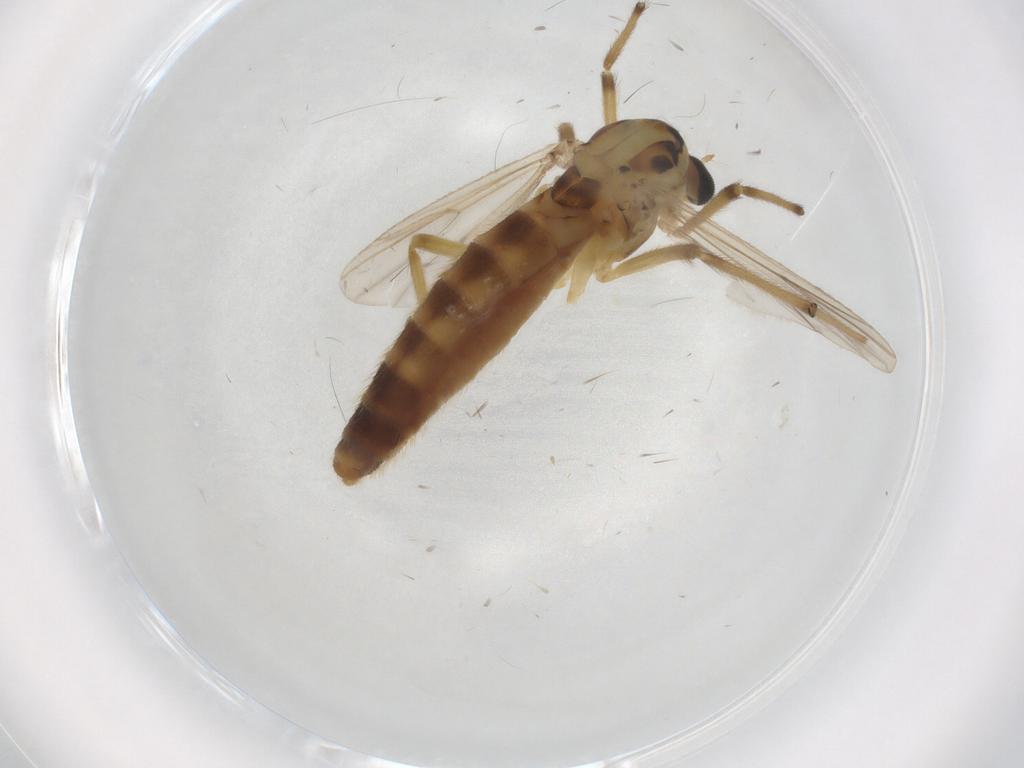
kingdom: Animalia
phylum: Arthropoda
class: Insecta
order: Diptera
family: Chironomidae
